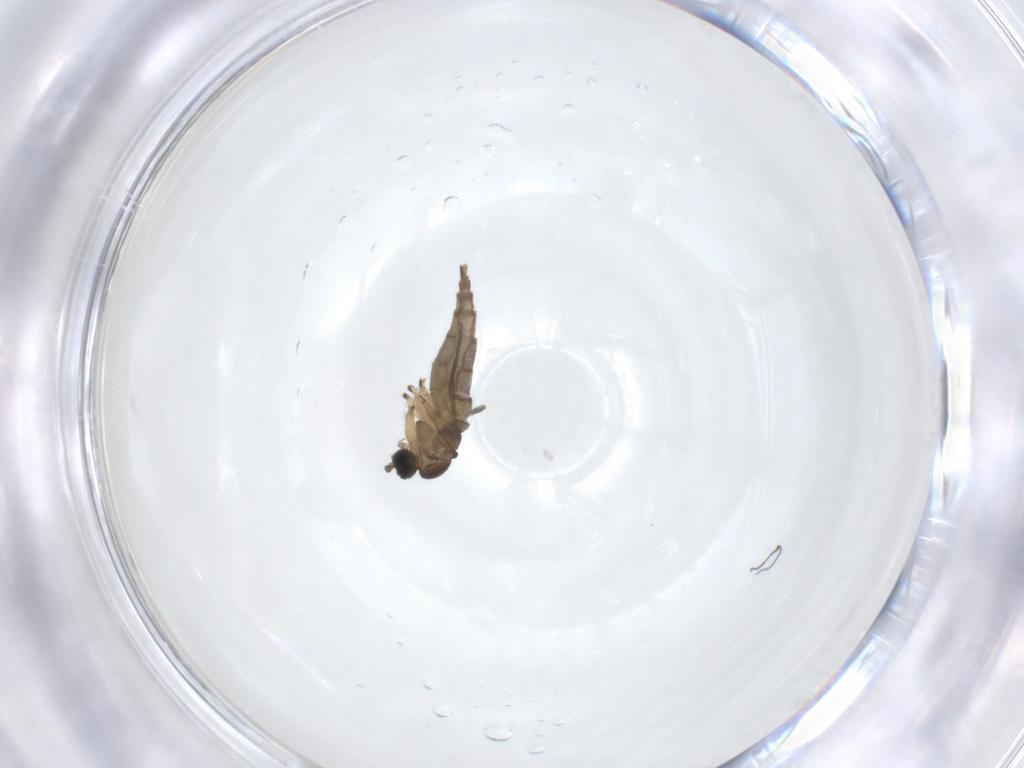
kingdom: Animalia
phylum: Arthropoda
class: Insecta
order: Diptera
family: Sciaridae
